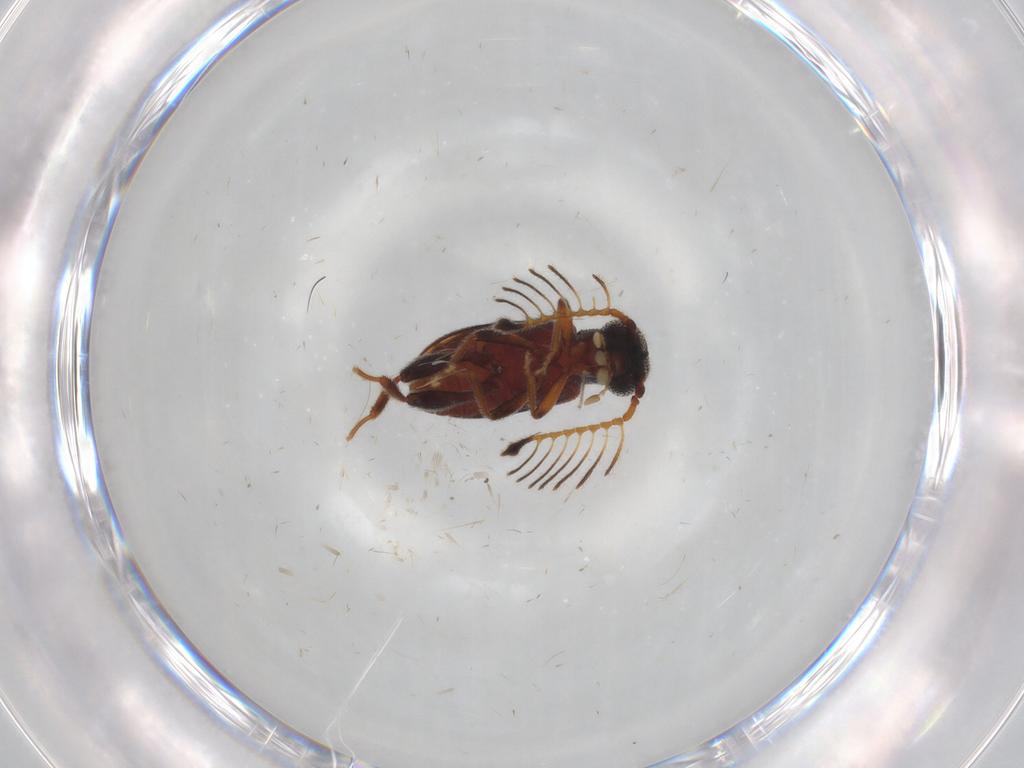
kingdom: Animalia
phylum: Arthropoda
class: Insecta
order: Coleoptera
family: Aderidae
